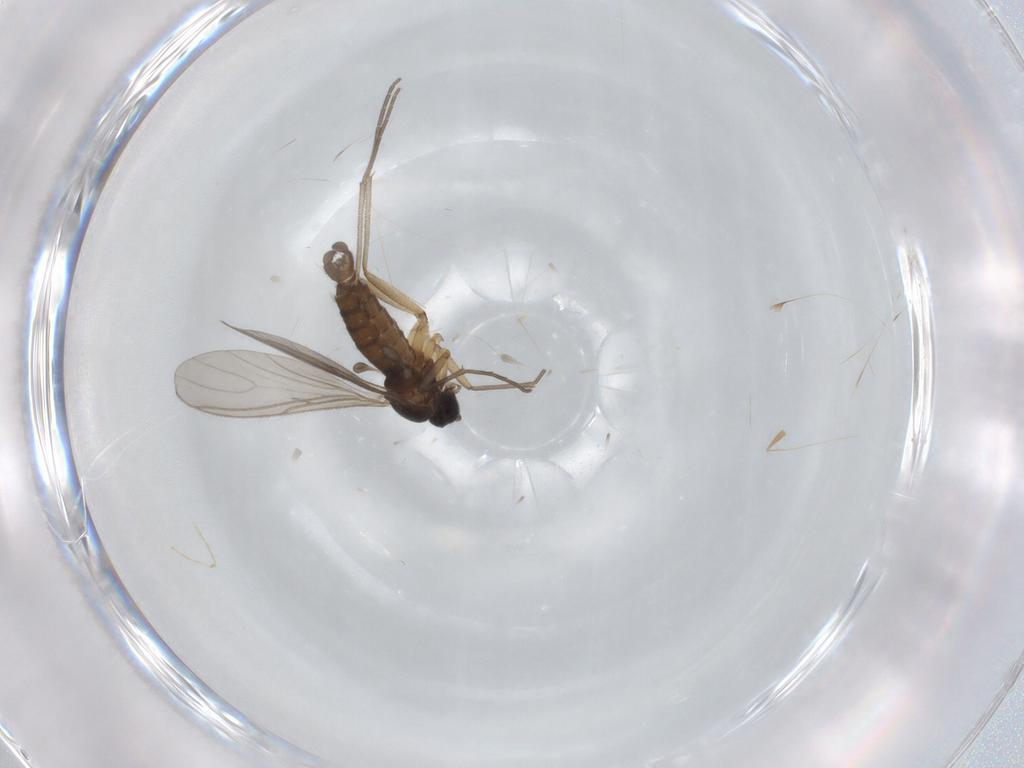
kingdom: Animalia
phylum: Arthropoda
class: Insecta
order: Diptera
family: Sciaridae
